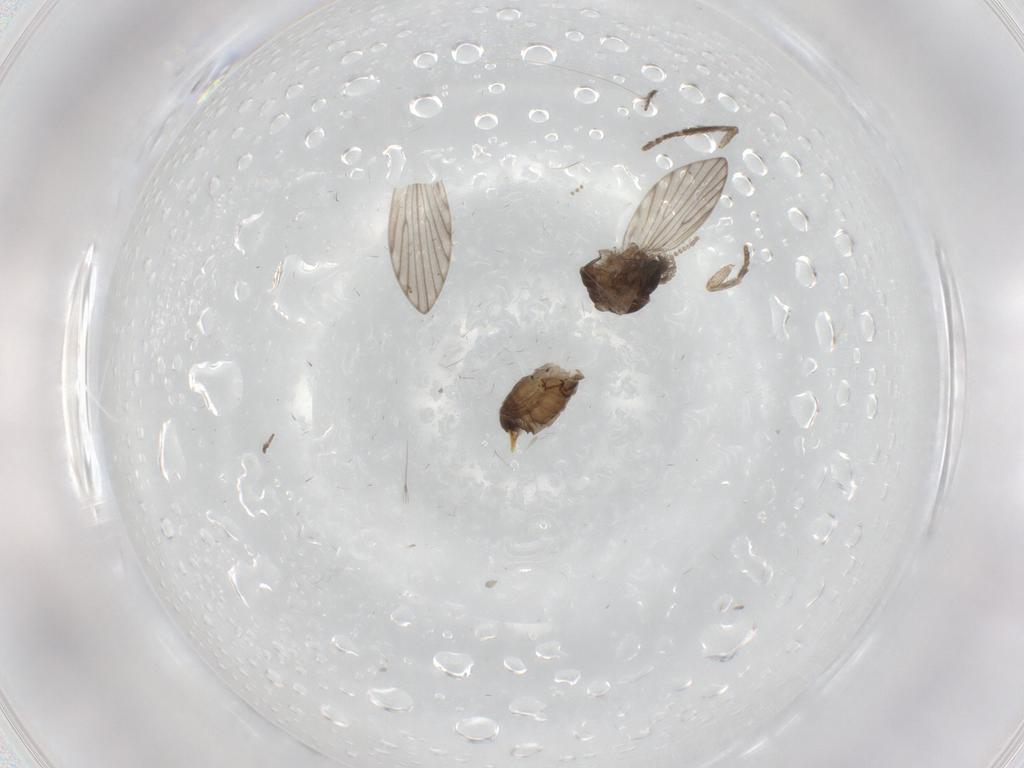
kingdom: Animalia
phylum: Arthropoda
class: Insecta
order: Diptera
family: Psychodidae
